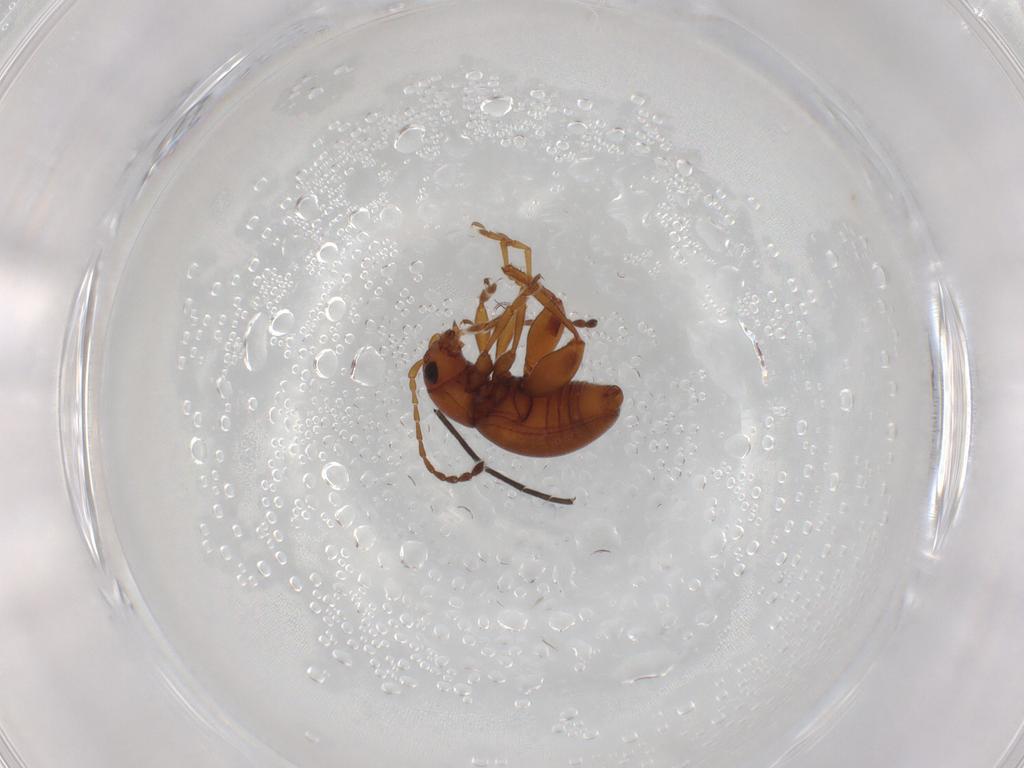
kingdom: Animalia
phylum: Arthropoda
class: Insecta
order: Coleoptera
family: Chrysomelidae
